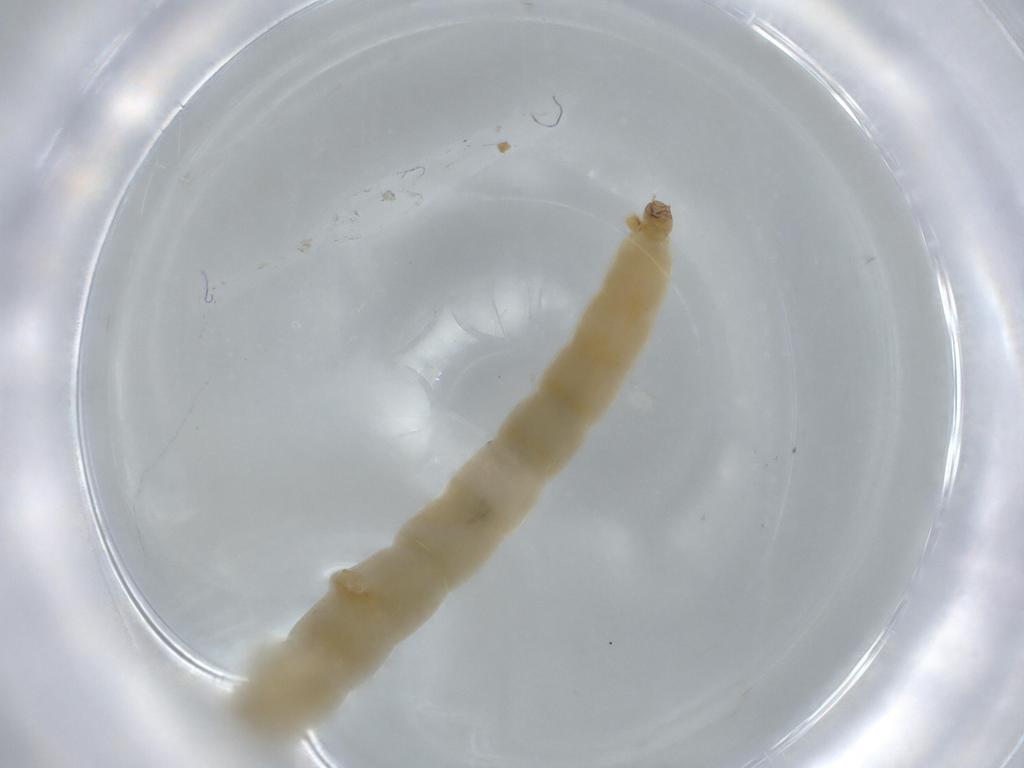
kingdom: Animalia
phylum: Arthropoda
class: Insecta
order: Diptera
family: Chironomidae
